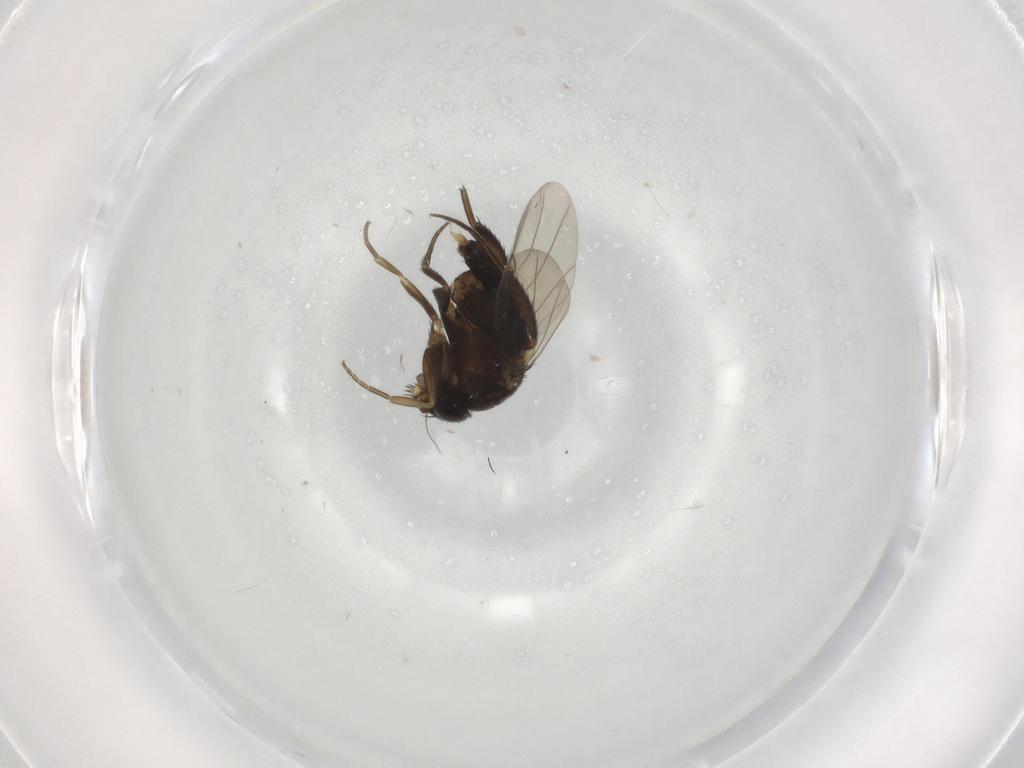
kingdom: Animalia
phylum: Arthropoda
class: Insecta
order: Diptera
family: Phoridae
